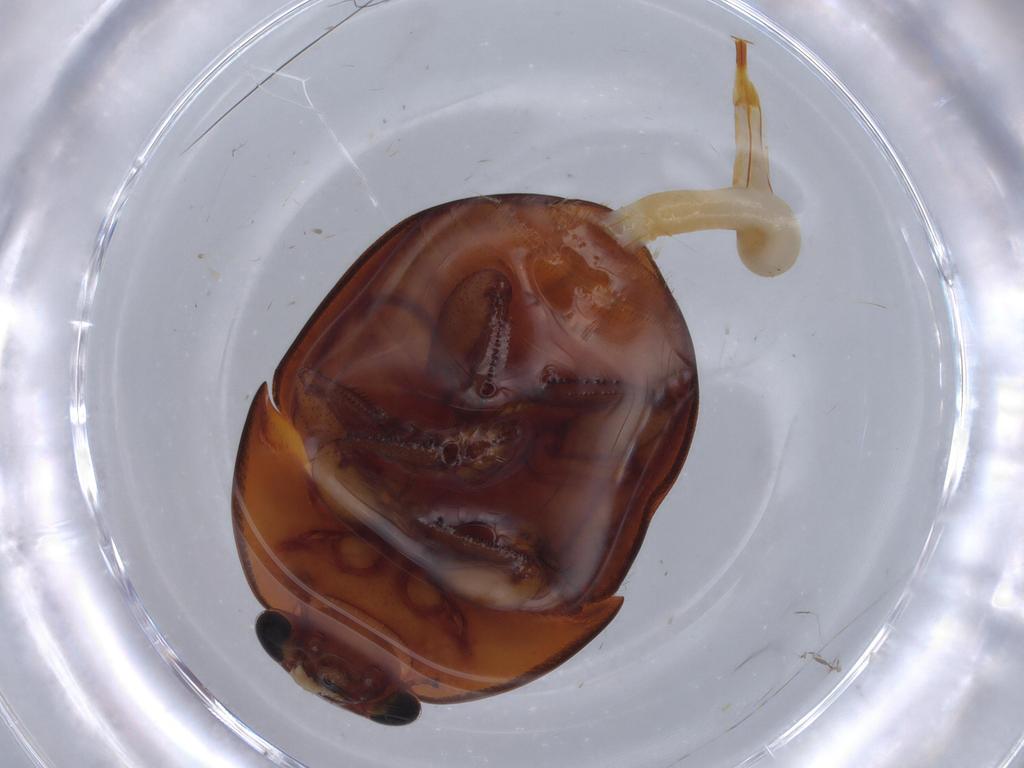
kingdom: Animalia
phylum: Arthropoda
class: Insecta
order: Coleoptera
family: Nitidulidae
